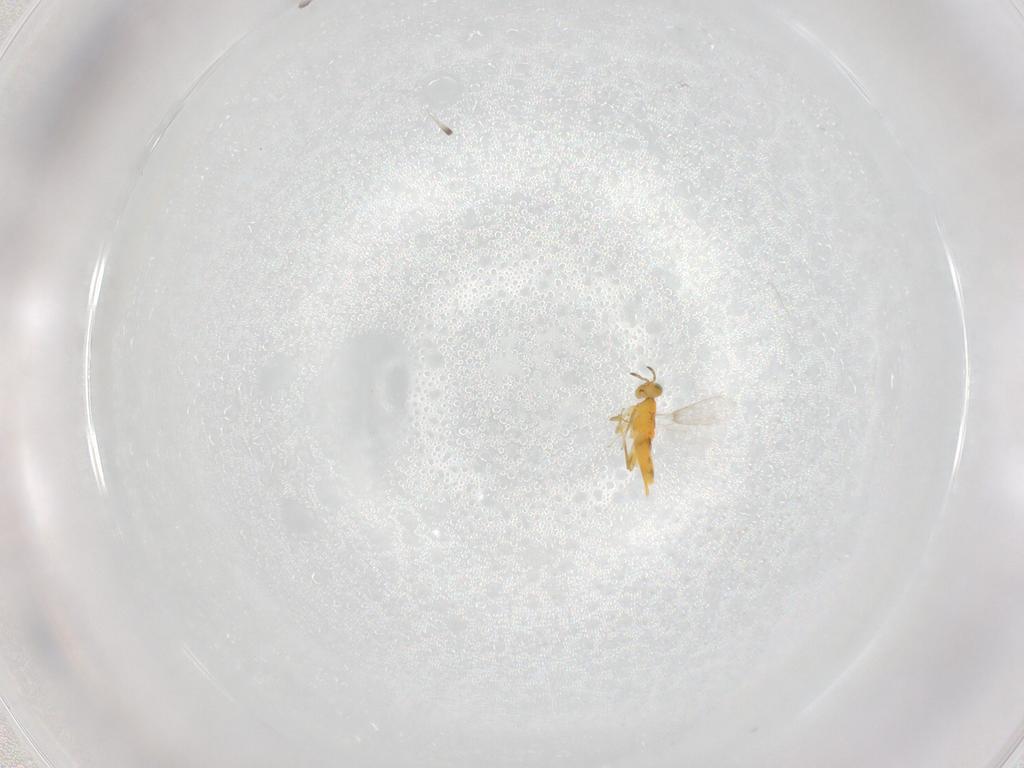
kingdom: Animalia
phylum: Arthropoda
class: Insecta
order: Hymenoptera
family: Aphelinidae
